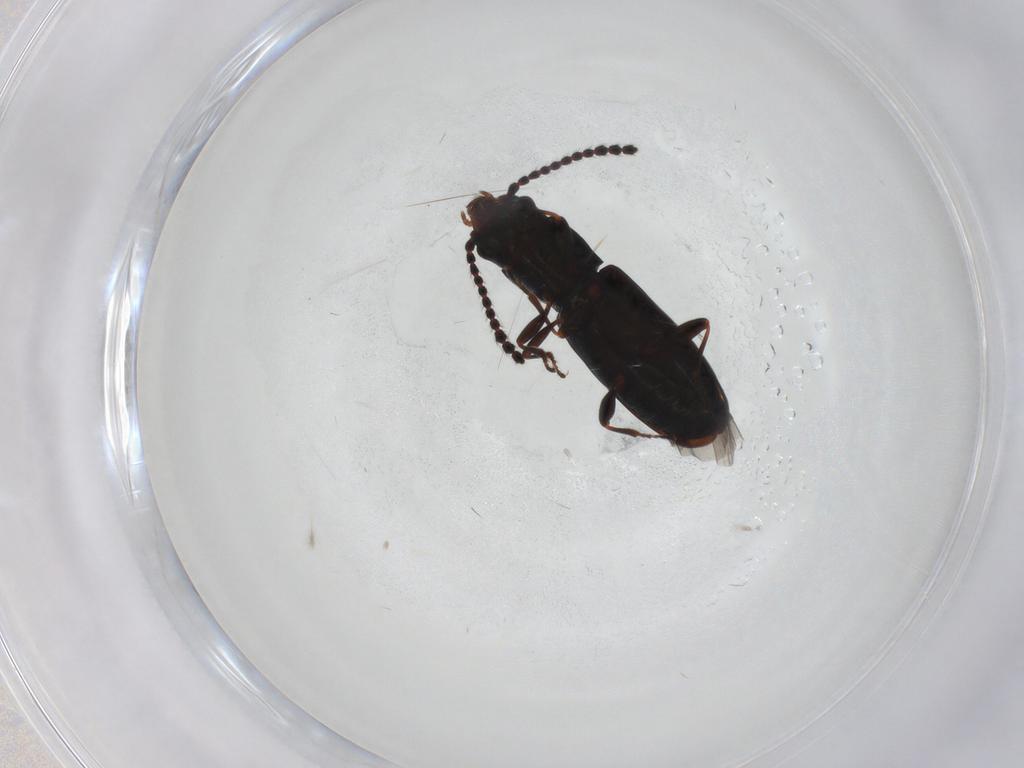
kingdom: Animalia
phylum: Arthropoda
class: Insecta
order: Coleoptera
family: Laemophloeidae
